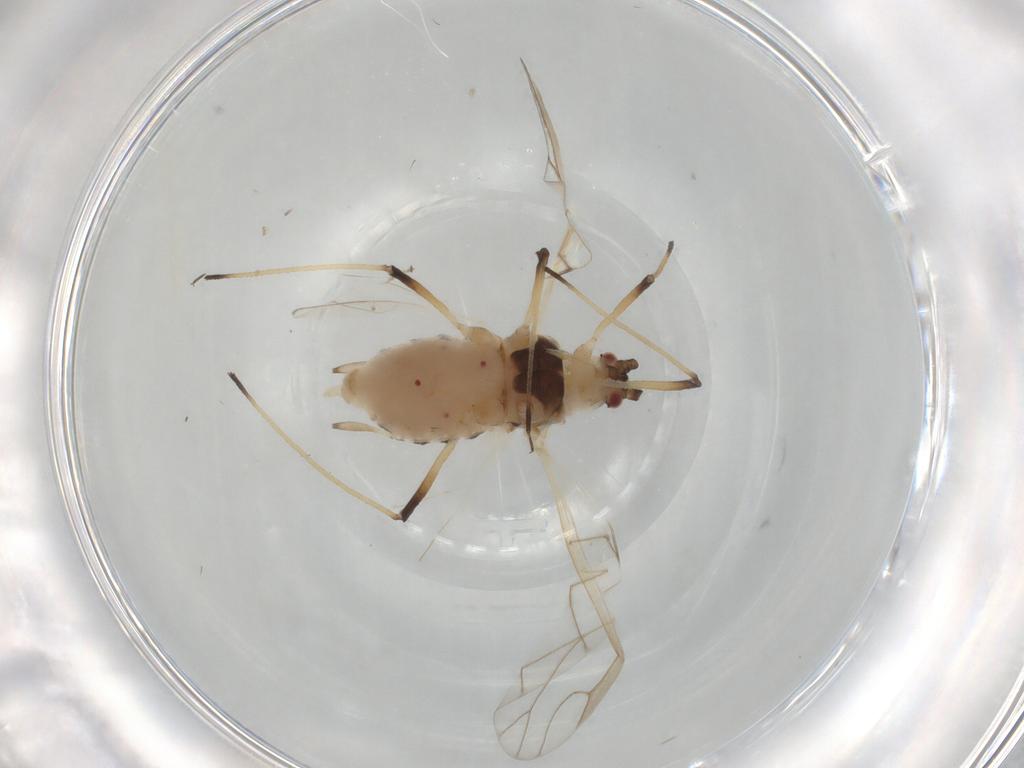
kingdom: Animalia
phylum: Arthropoda
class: Insecta
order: Hemiptera
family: Aphididae
